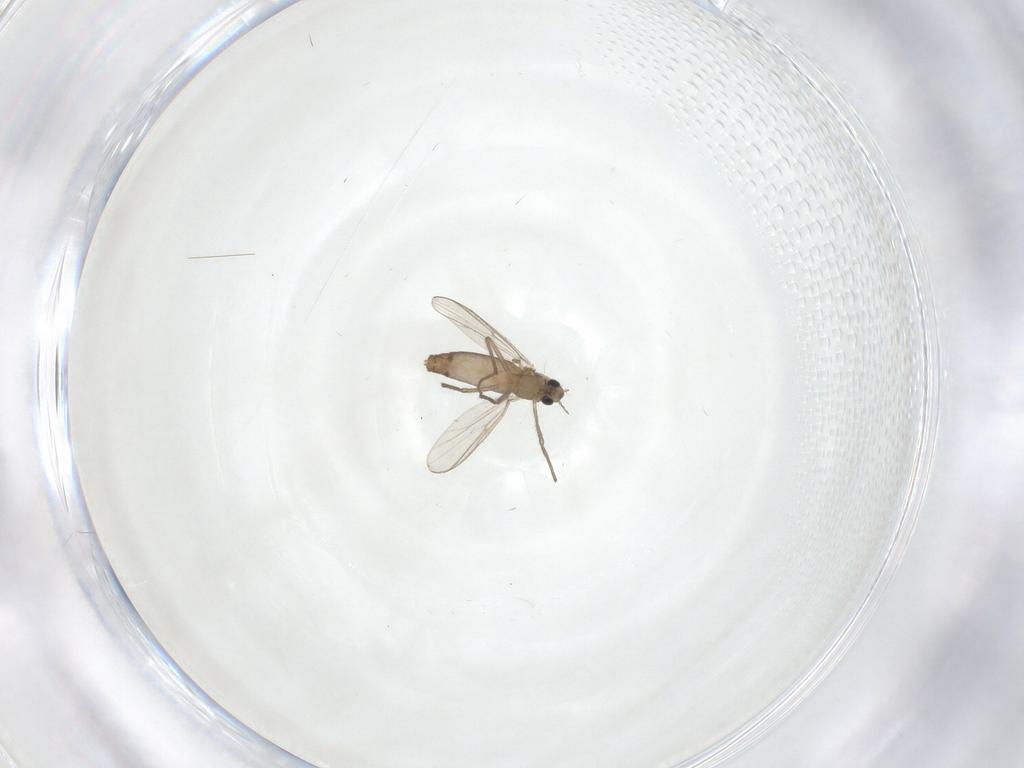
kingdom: Animalia
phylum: Arthropoda
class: Insecta
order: Diptera
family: Chironomidae
